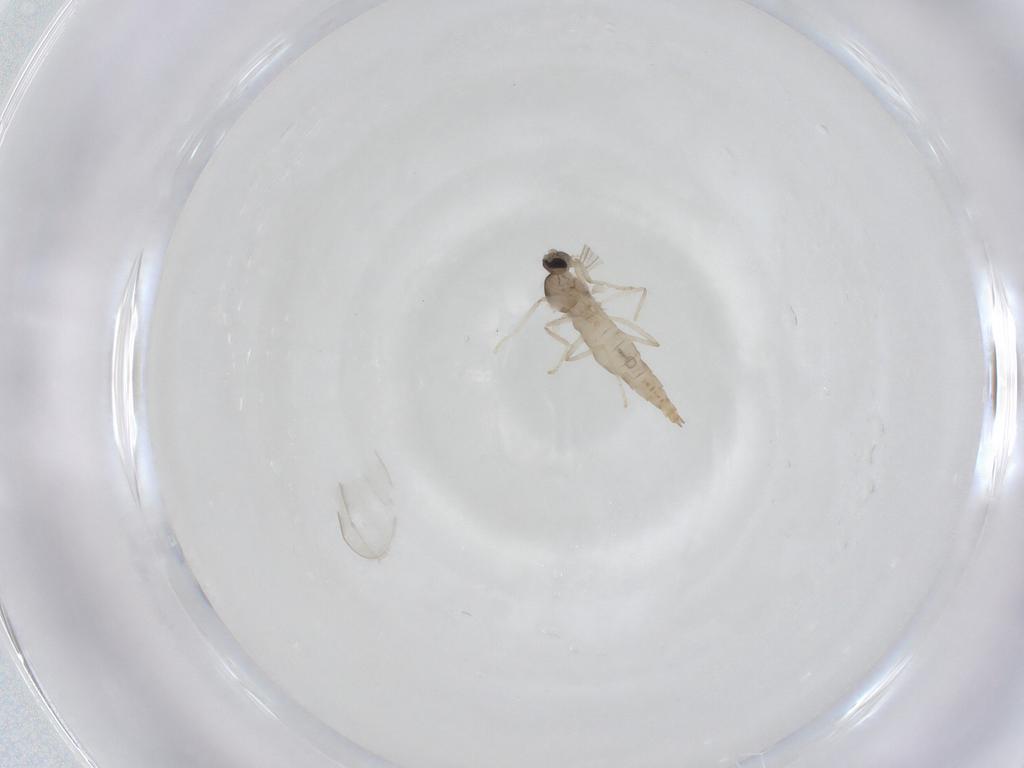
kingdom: Animalia
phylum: Arthropoda
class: Insecta
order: Diptera
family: Cecidomyiidae
